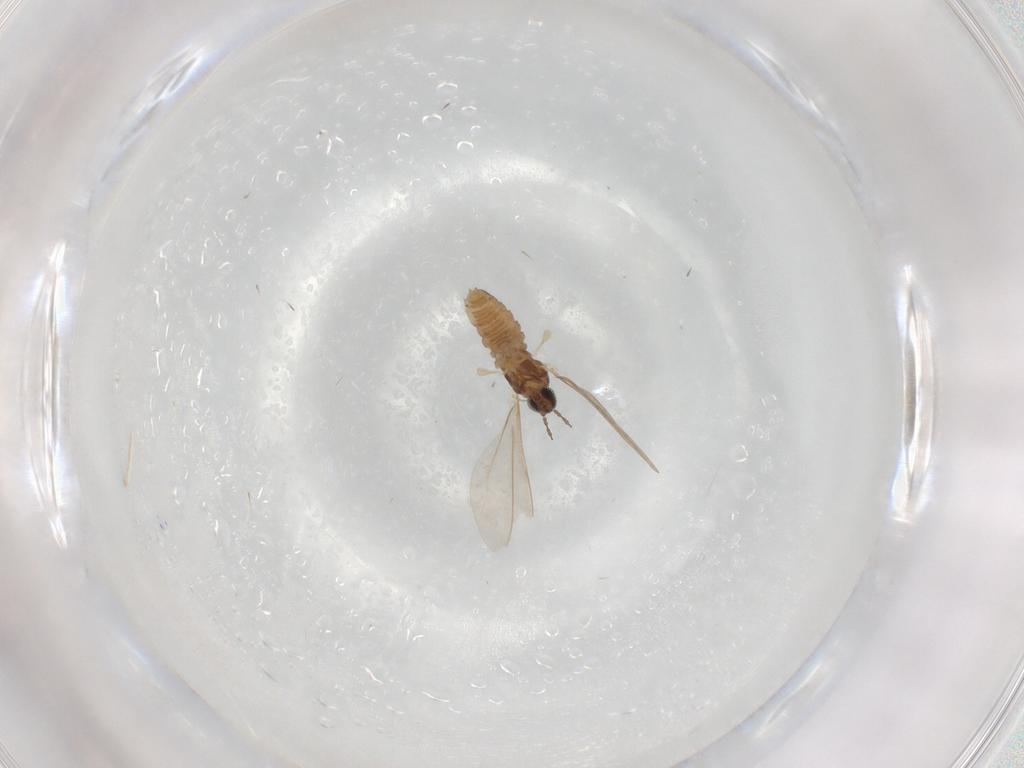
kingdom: Animalia
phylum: Arthropoda
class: Insecta
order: Diptera
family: Cecidomyiidae
